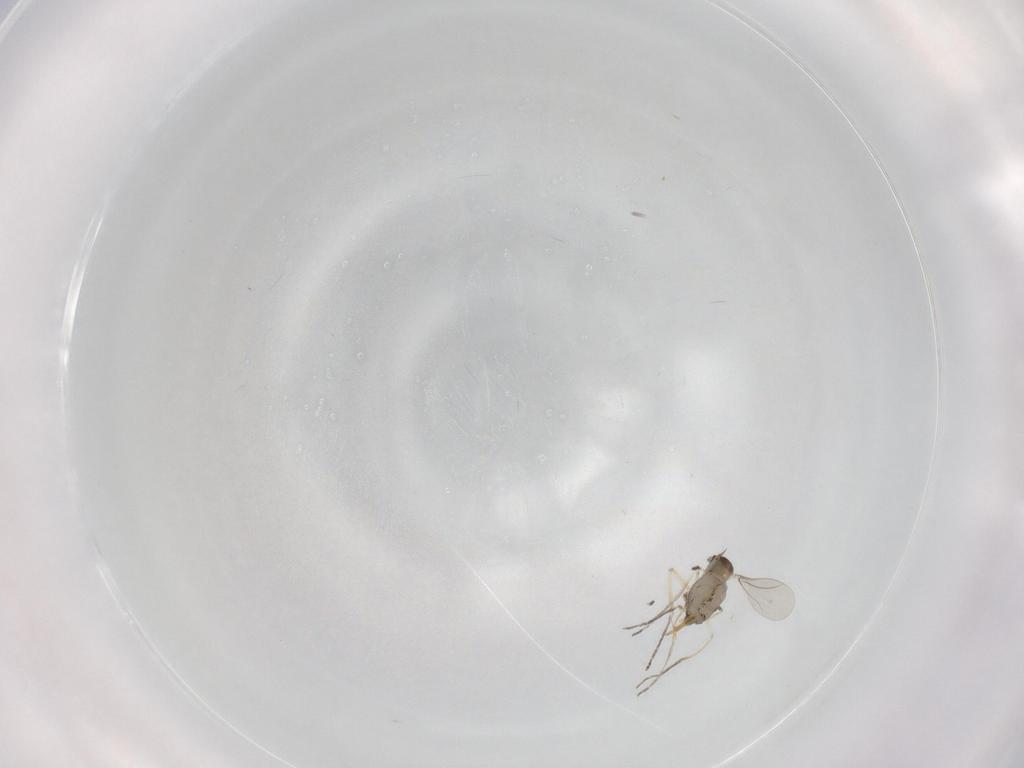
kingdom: Animalia
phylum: Arthropoda
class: Insecta
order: Diptera
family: Cecidomyiidae
